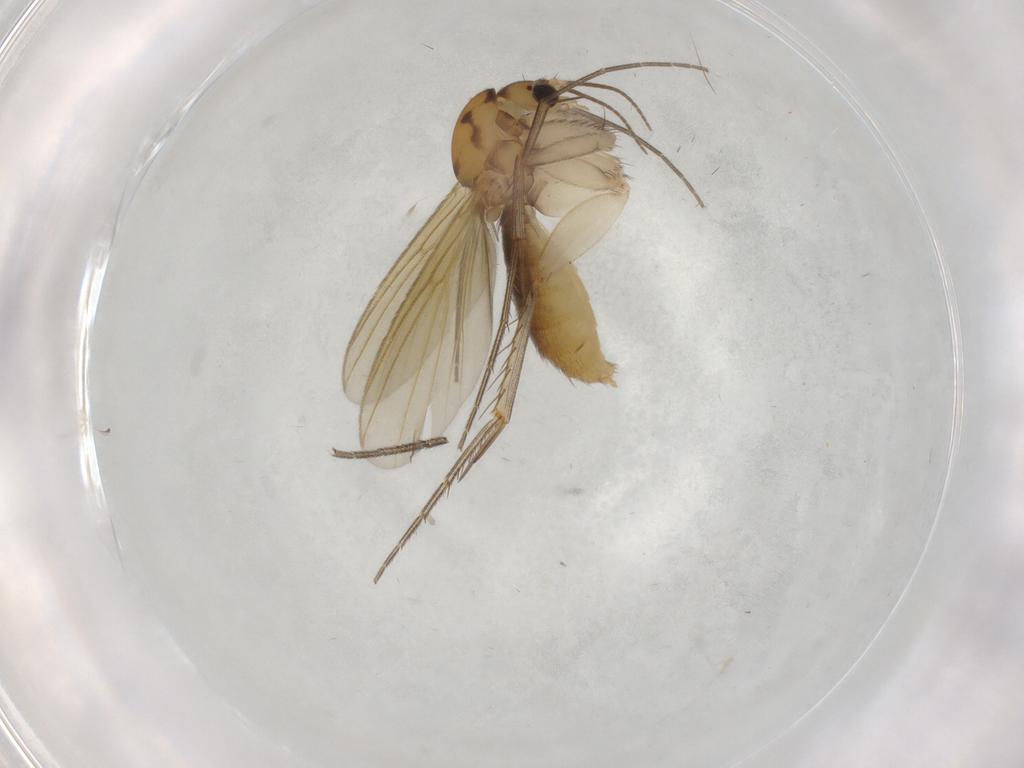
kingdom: Animalia
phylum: Arthropoda
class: Insecta
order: Diptera
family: Mycetophilidae
